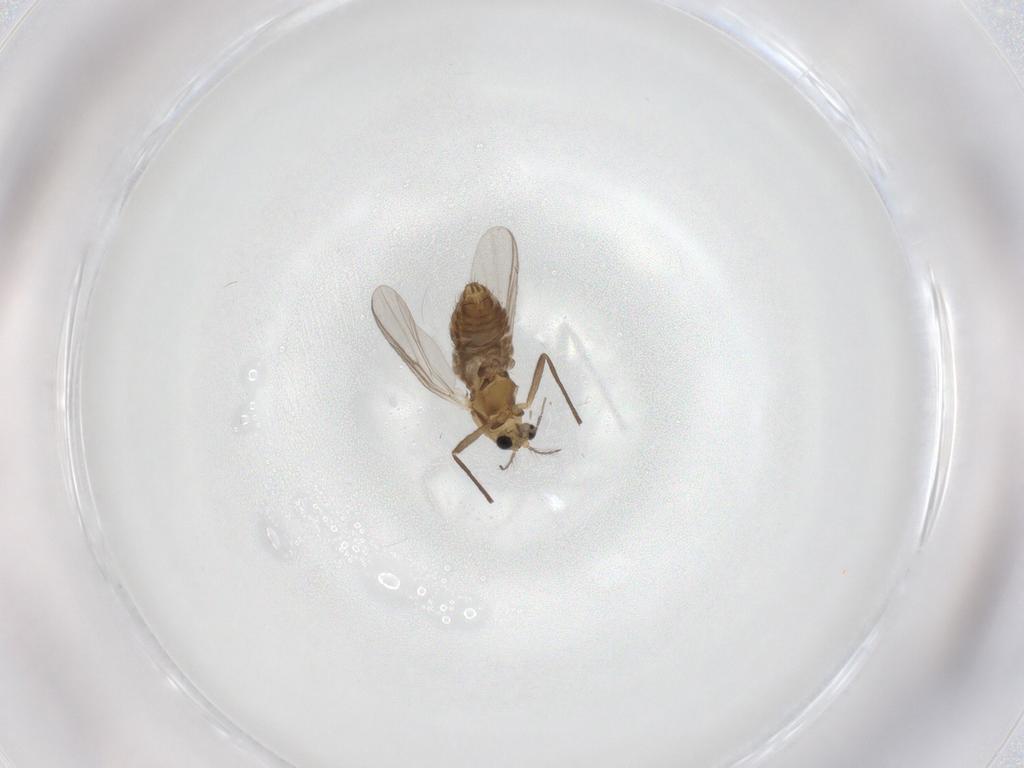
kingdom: Animalia
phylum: Arthropoda
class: Insecta
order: Diptera
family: Chironomidae
